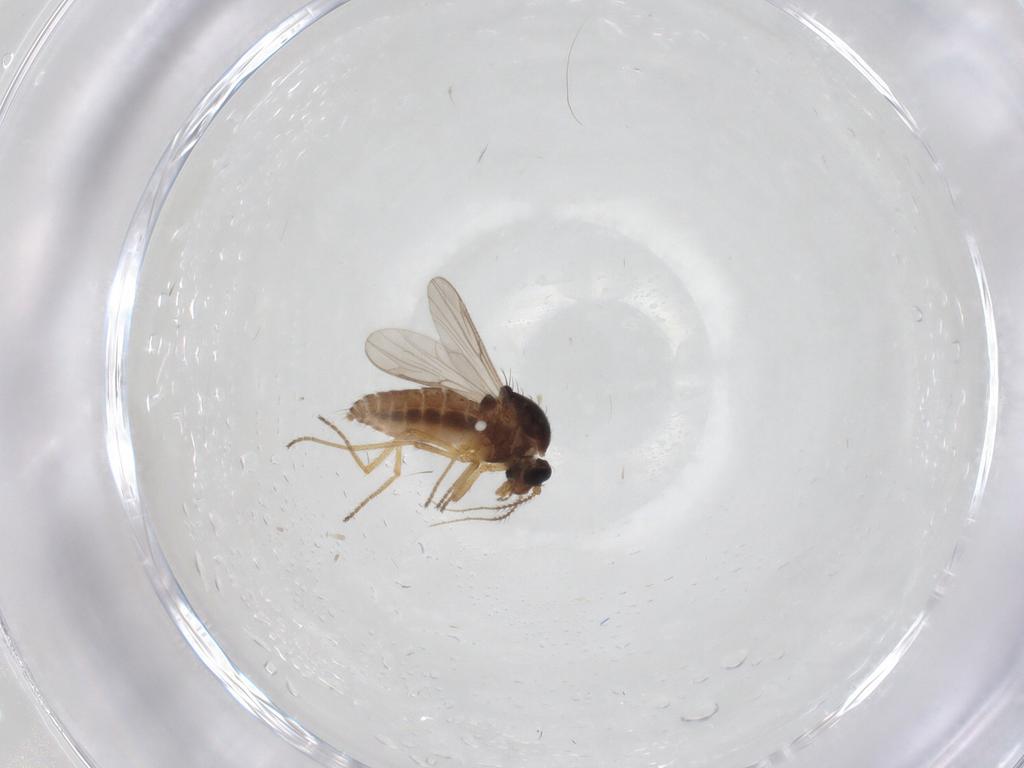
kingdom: Animalia
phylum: Arthropoda
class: Insecta
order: Diptera
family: Ceratopogonidae
